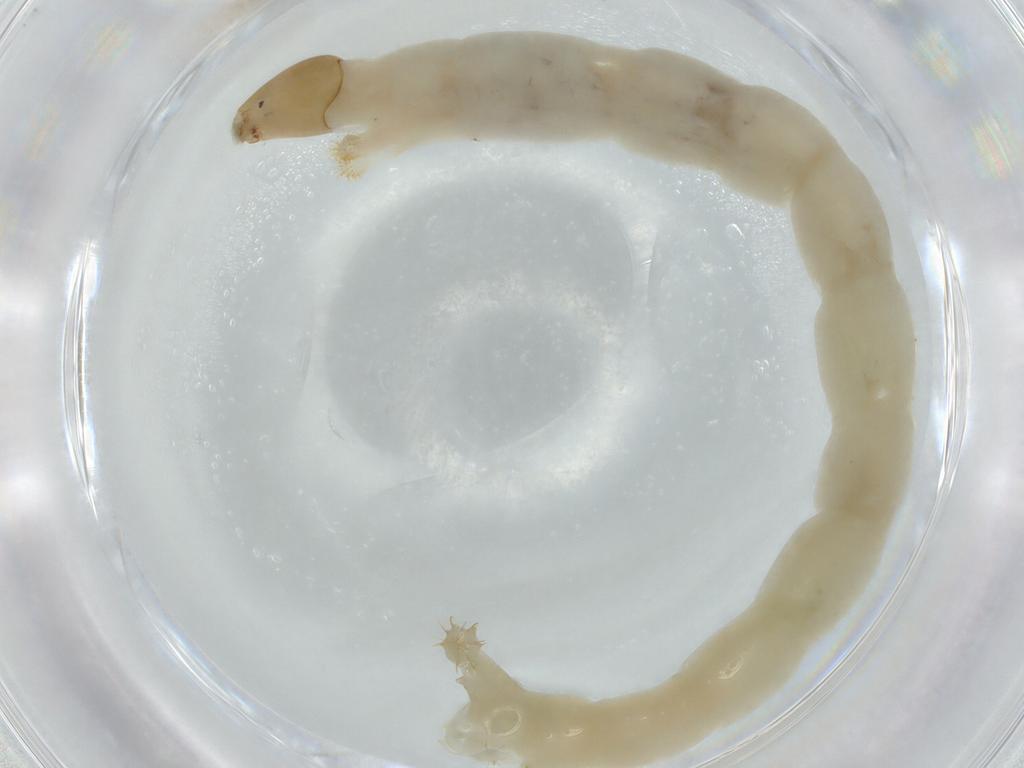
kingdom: Animalia
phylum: Arthropoda
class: Insecta
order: Diptera
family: Chironomidae
